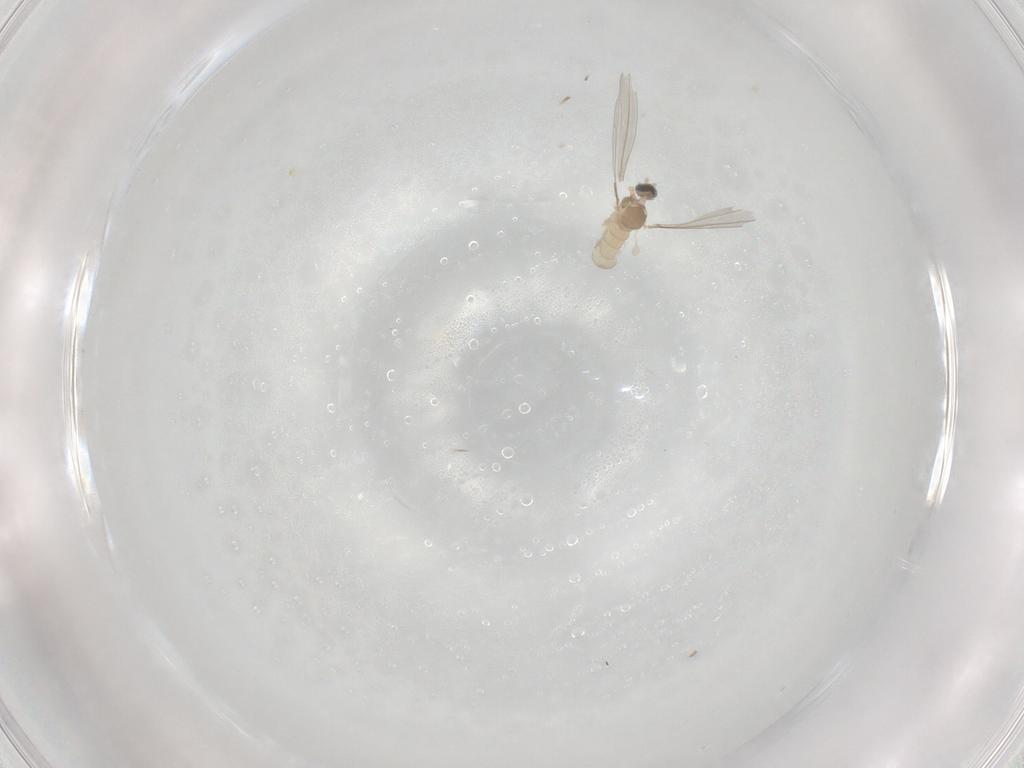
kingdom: Animalia
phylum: Arthropoda
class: Insecta
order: Diptera
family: Cecidomyiidae
